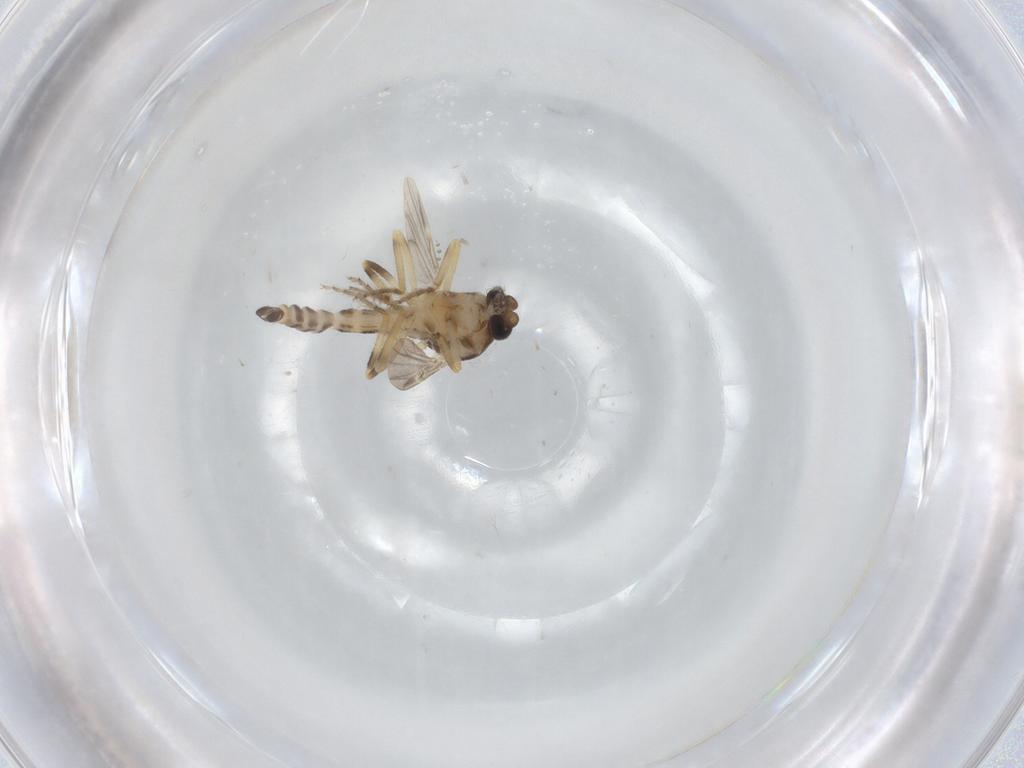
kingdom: Animalia
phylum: Arthropoda
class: Insecta
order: Diptera
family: Ceratopogonidae
